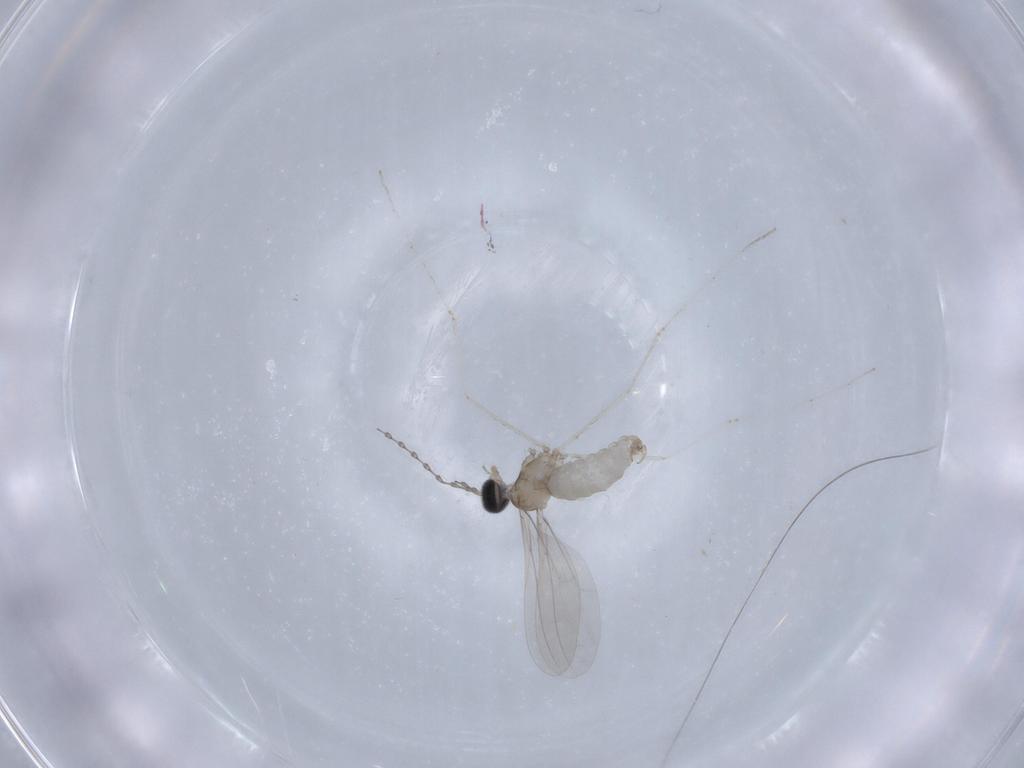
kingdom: Animalia
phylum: Arthropoda
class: Insecta
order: Diptera
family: Cecidomyiidae
